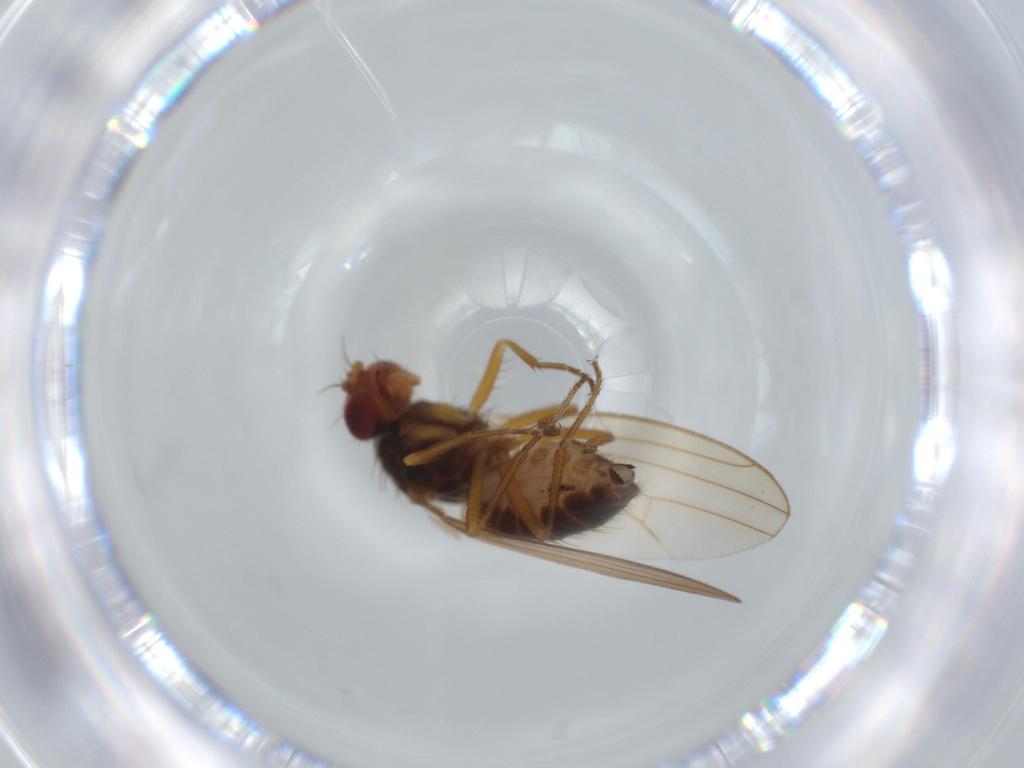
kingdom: Animalia
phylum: Arthropoda
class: Insecta
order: Diptera
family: Drosophilidae
